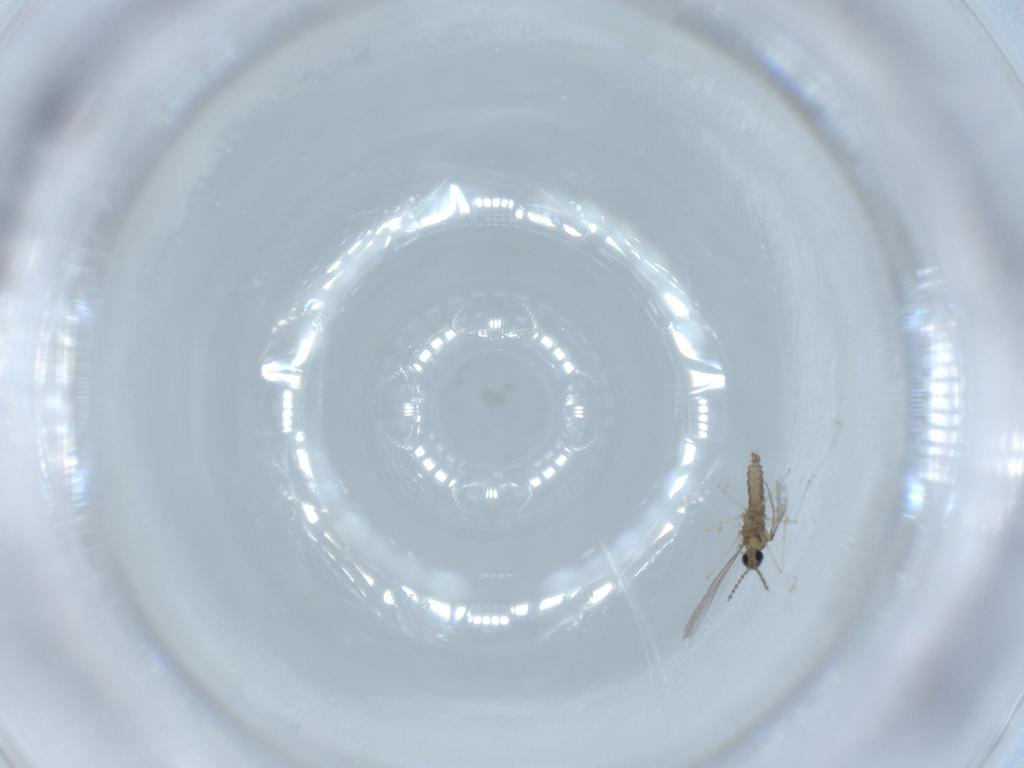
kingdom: Animalia
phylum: Arthropoda
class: Insecta
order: Diptera
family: Cecidomyiidae
